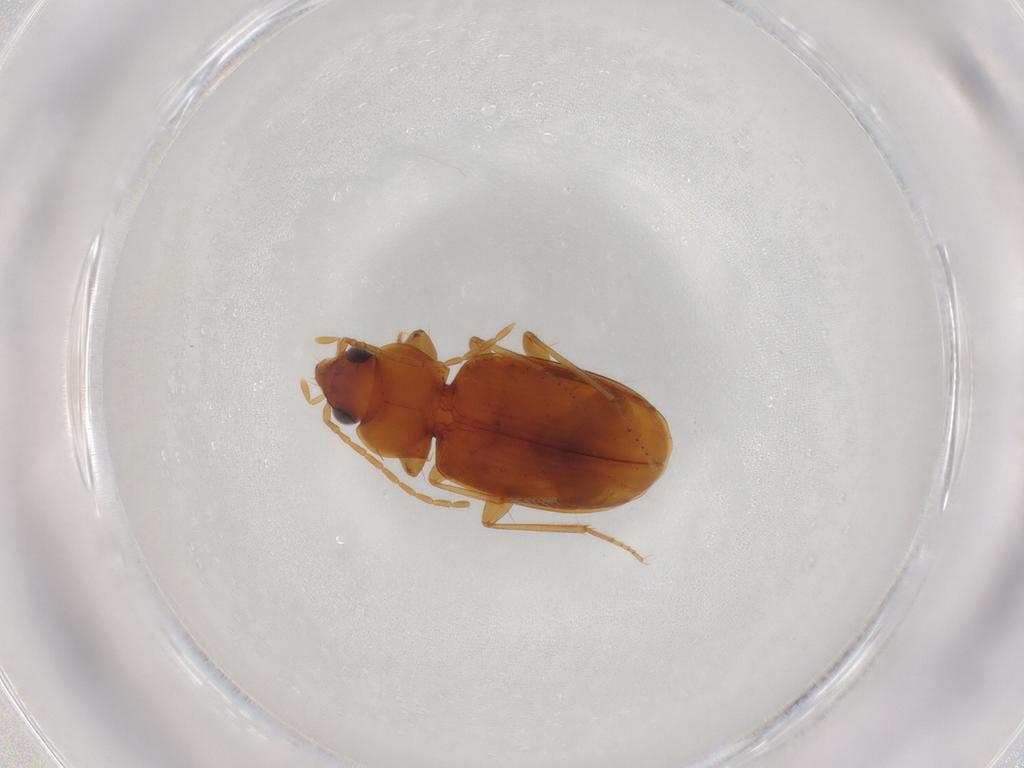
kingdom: Animalia
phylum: Arthropoda
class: Insecta
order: Coleoptera
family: Carabidae
